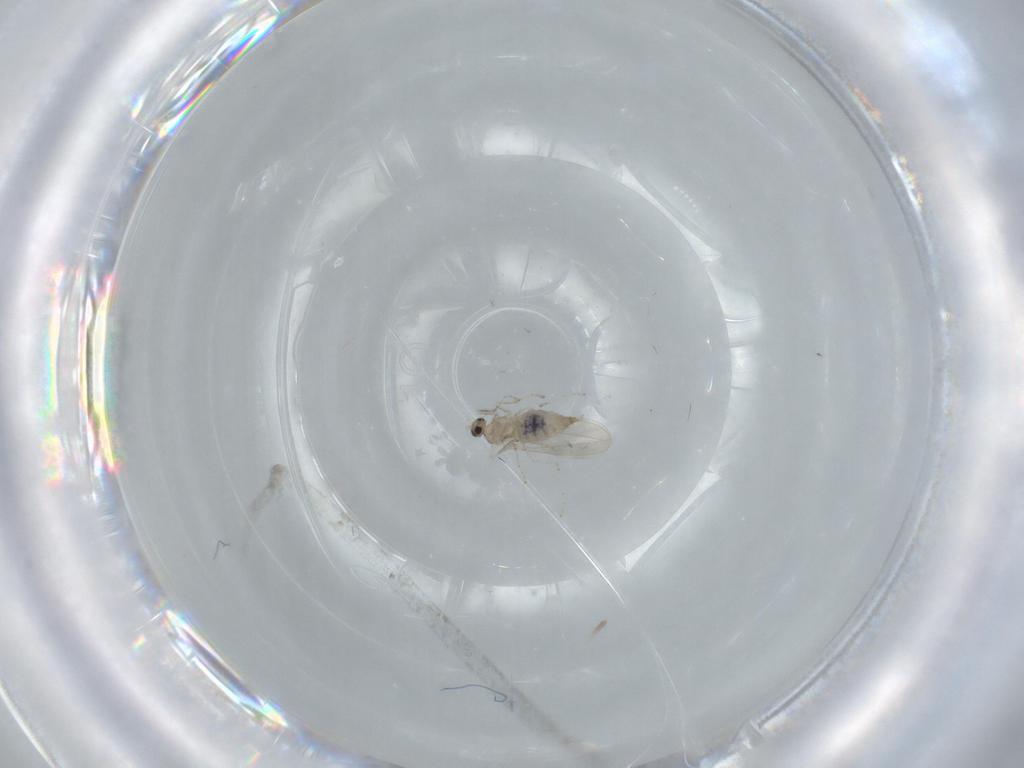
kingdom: Animalia
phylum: Arthropoda
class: Insecta
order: Diptera
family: Cecidomyiidae
